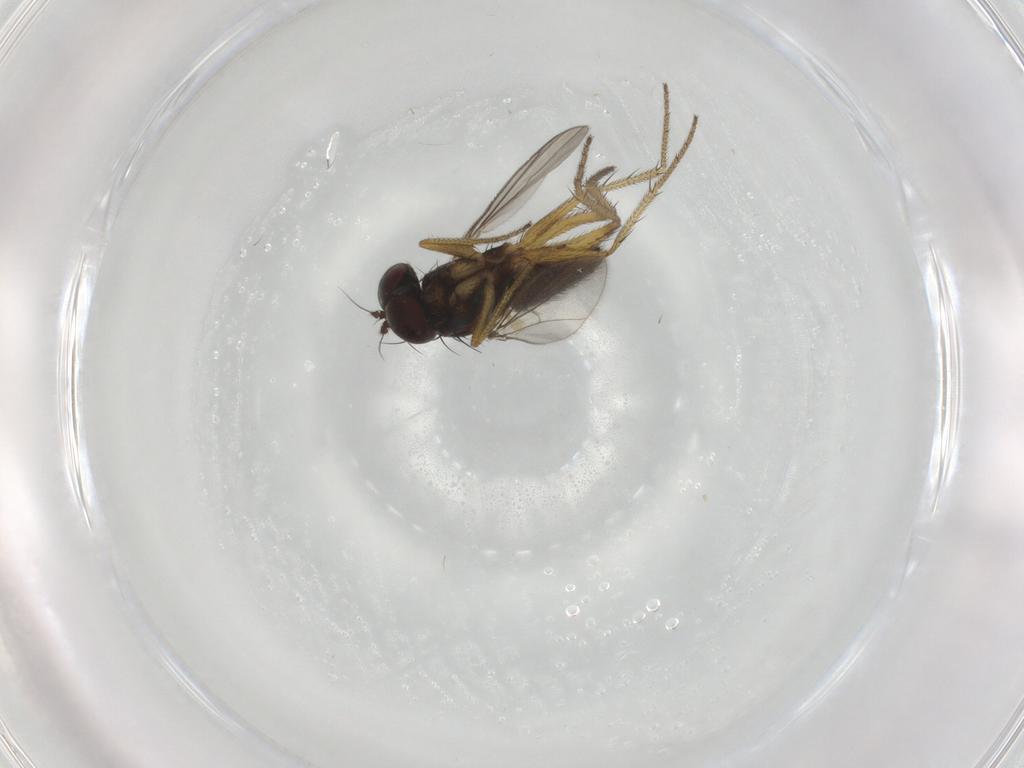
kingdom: Animalia
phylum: Arthropoda
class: Insecta
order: Diptera
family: Dolichopodidae
